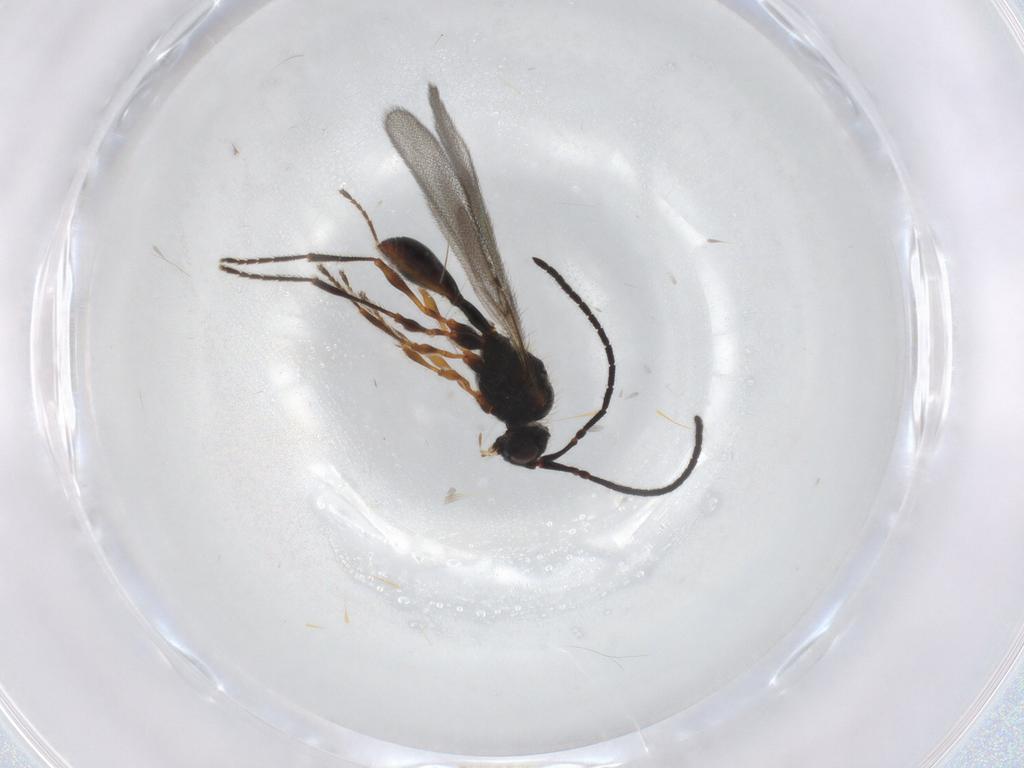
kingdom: Animalia
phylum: Arthropoda
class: Insecta
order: Hymenoptera
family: Diapriidae
